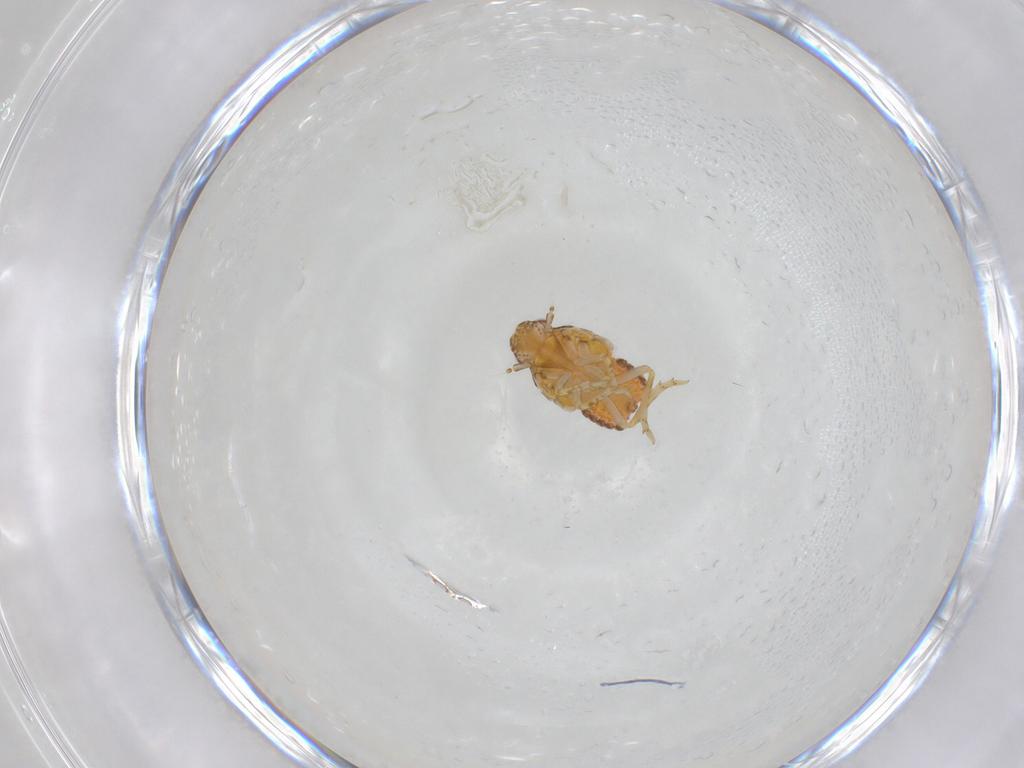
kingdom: Animalia
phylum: Arthropoda
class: Insecta
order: Hemiptera
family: Flatidae
